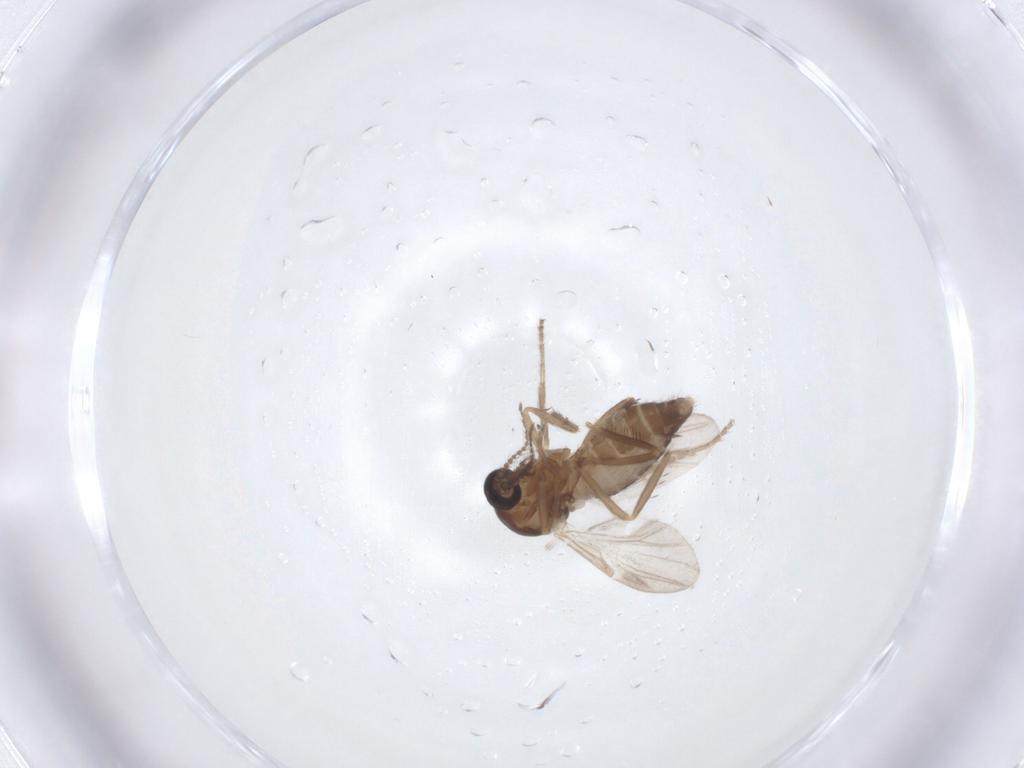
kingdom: Animalia
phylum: Arthropoda
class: Insecta
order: Diptera
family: Ceratopogonidae
